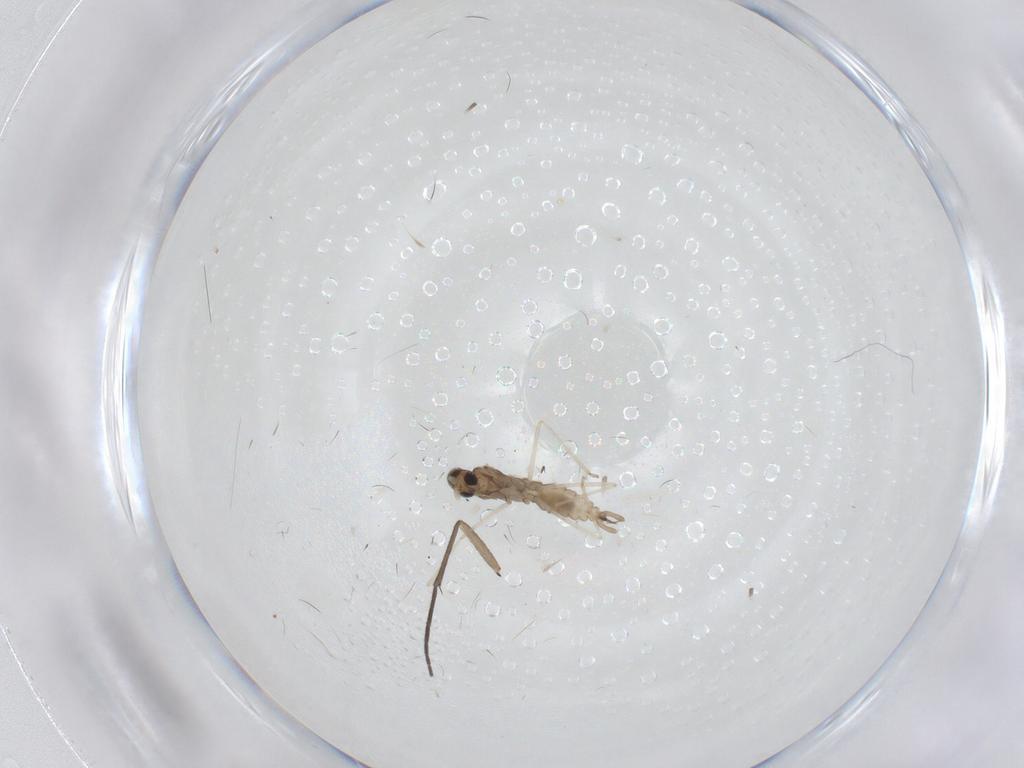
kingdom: Animalia
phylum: Arthropoda
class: Insecta
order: Diptera
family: Cecidomyiidae
